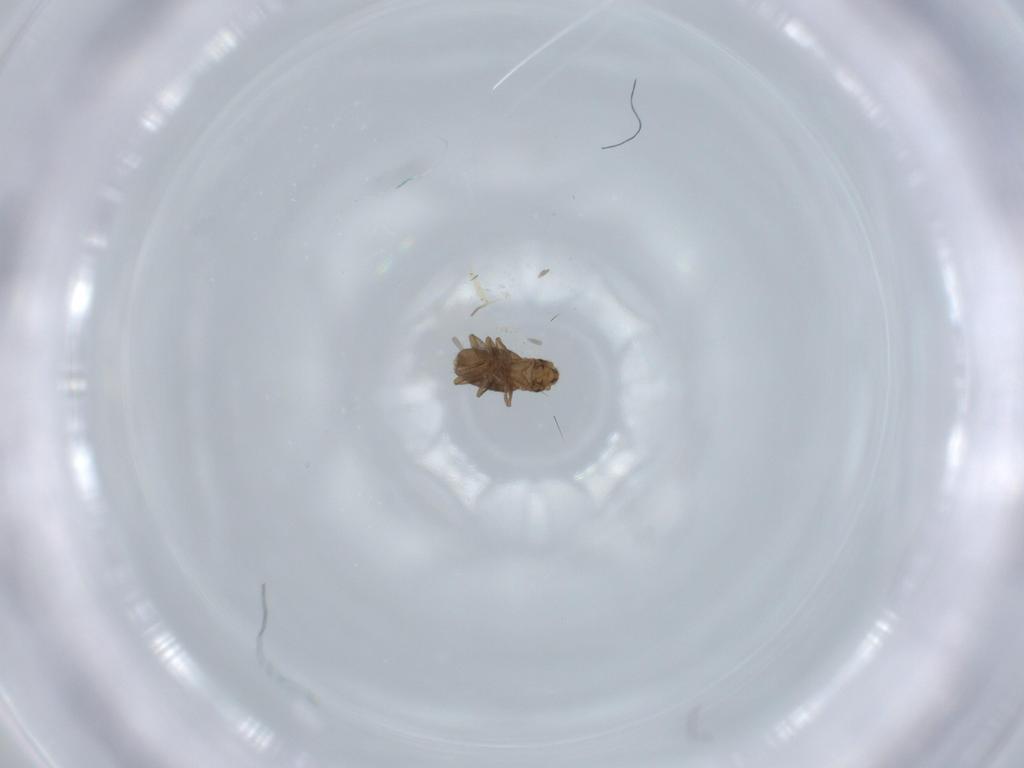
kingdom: Animalia
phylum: Arthropoda
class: Insecta
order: Diptera
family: Phoridae
